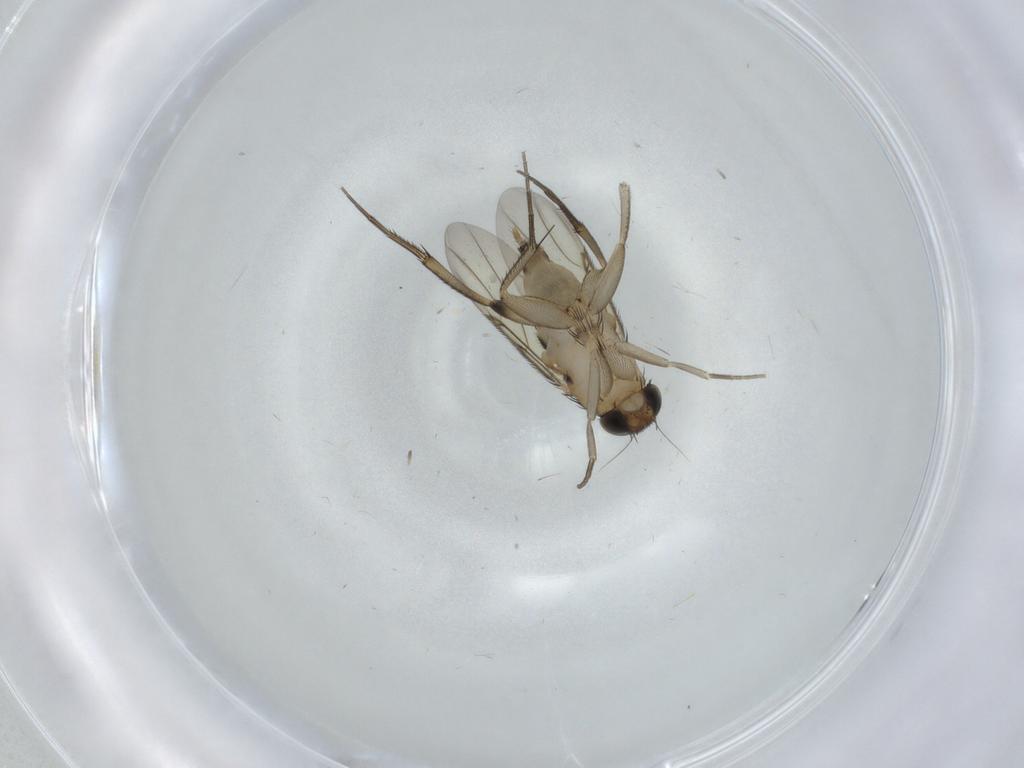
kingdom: Animalia
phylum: Arthropoda
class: Insecta
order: Diptera
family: Chloropidae
